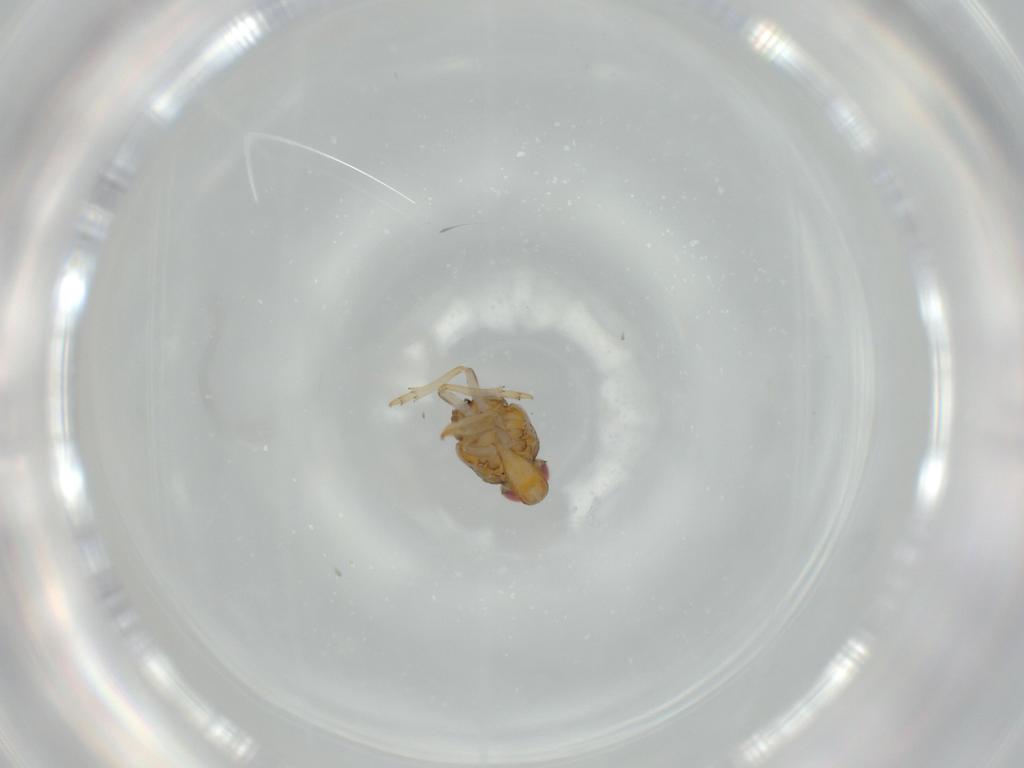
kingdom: Animalia
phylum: Arthropoda
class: Insecta
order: Hemiptera
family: Issidae
